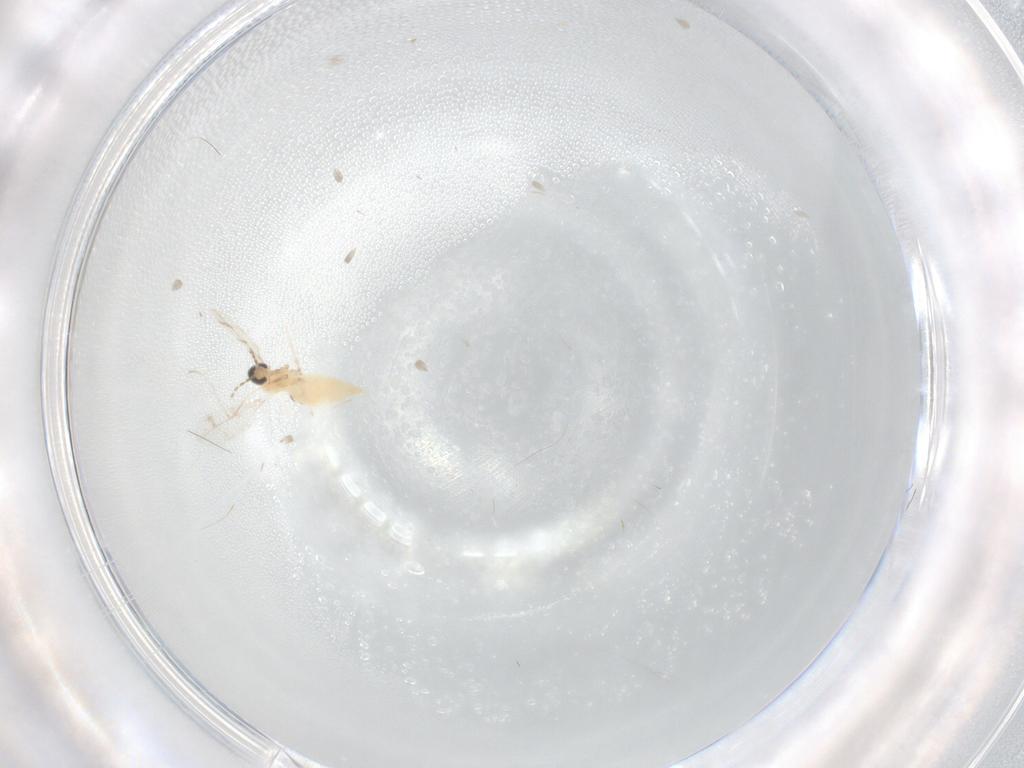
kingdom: Animalia
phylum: Arthropoda
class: Insecta
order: Diptera
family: Cecidomyiidae
